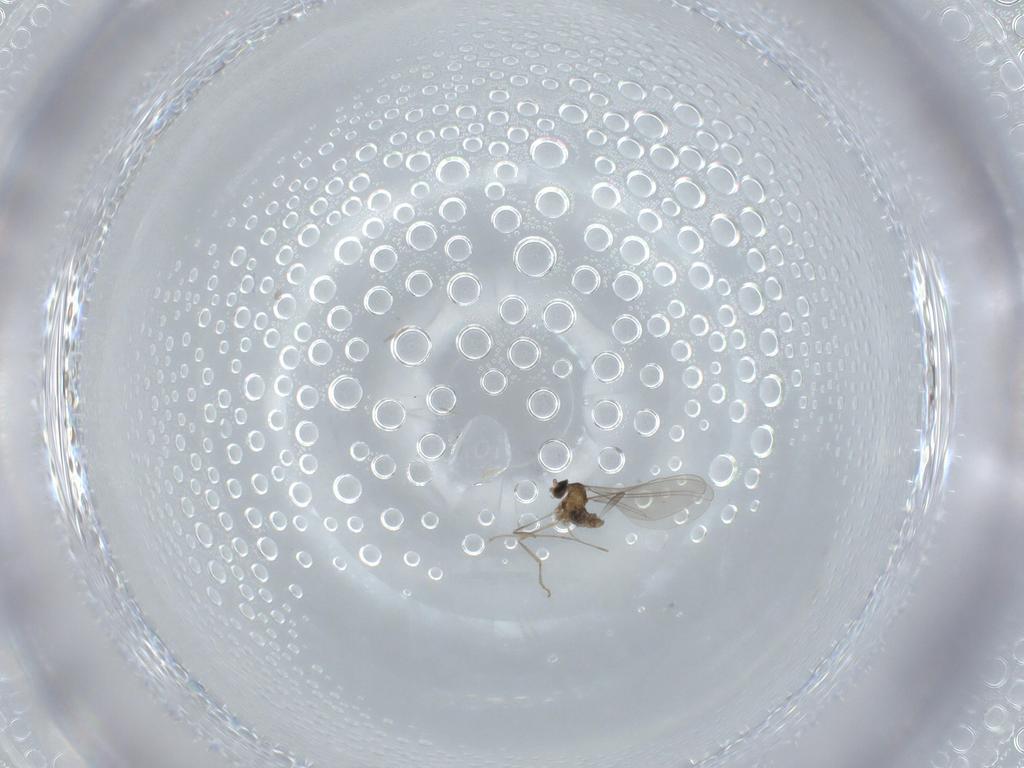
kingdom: Animalia
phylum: Arthropoda
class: Insecta
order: Diptera
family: Cecidomyiidae
